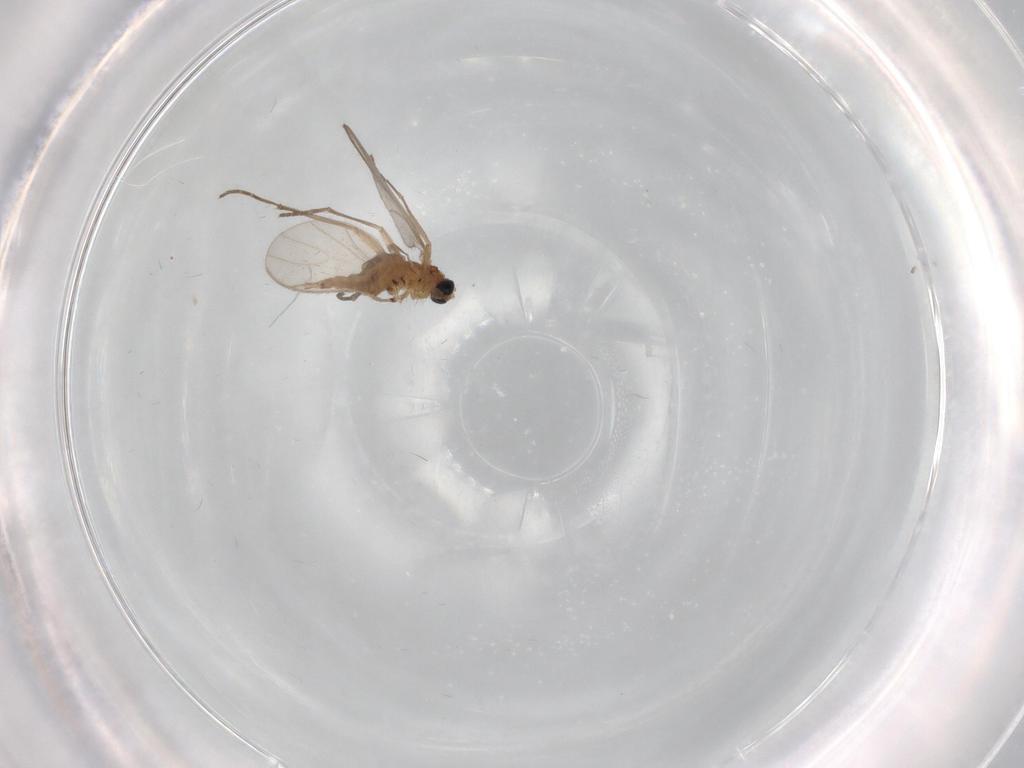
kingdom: Animalia
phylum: Arthropoda
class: Insecta
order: Diptera
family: Sciaridae
